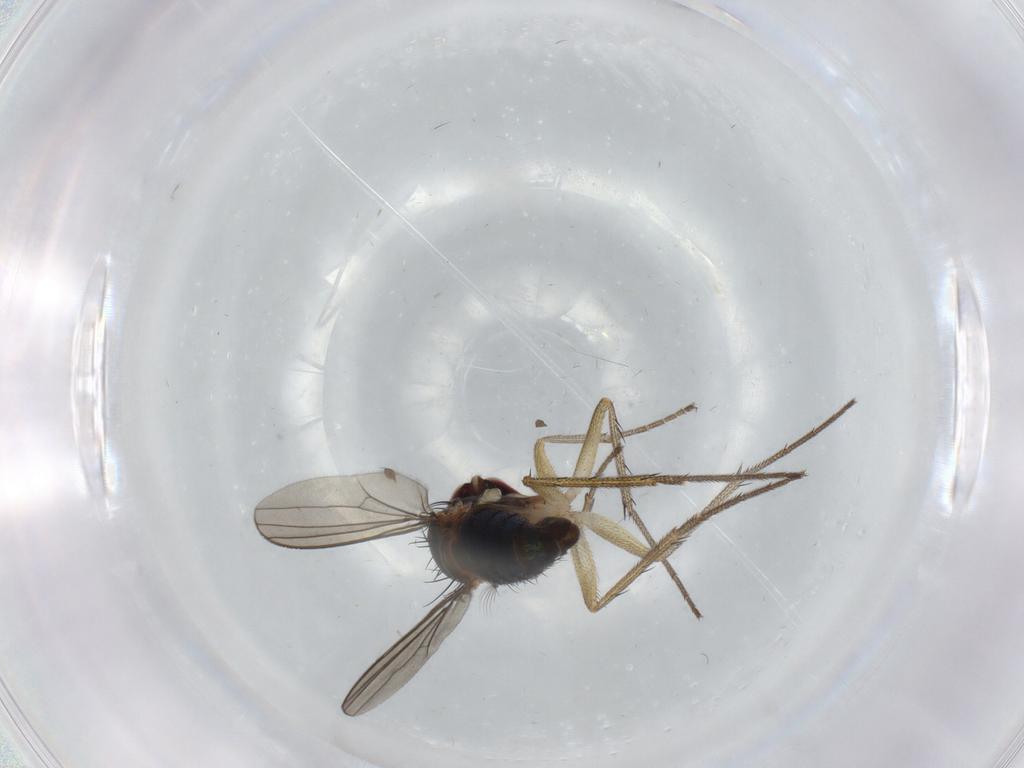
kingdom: Animalia
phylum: Arthropoda
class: Insecta
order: Diptera
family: Dolichopodidae
